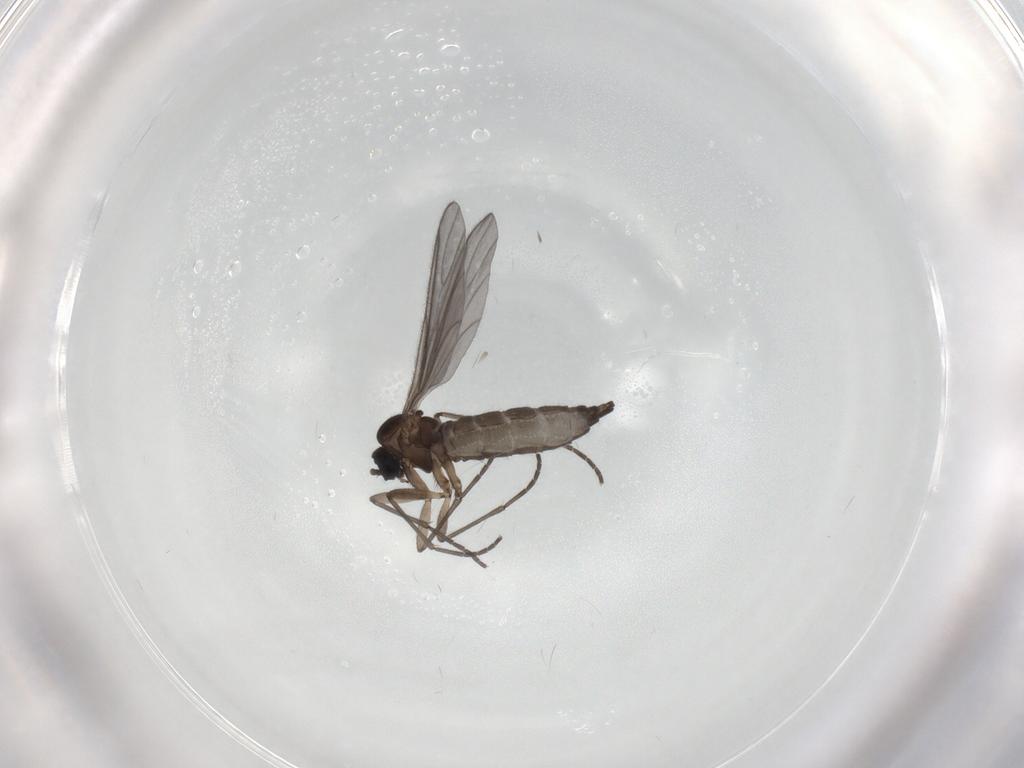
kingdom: Animalia
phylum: Arthropoda
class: Insecta
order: Diptera
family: Sciaridae
